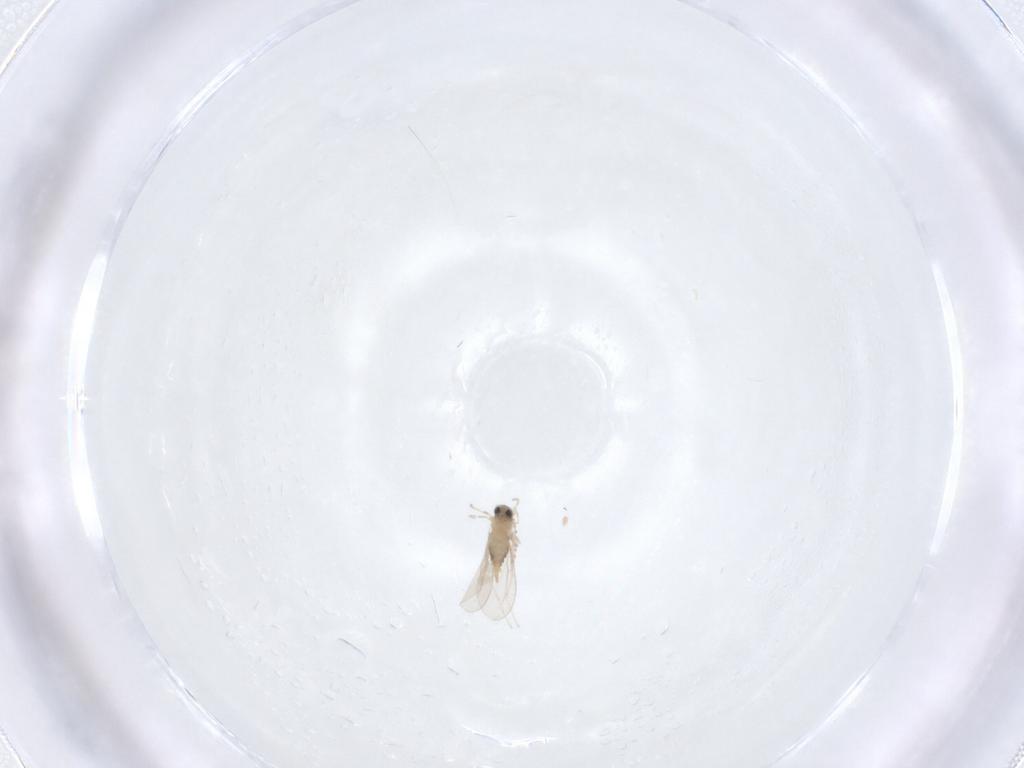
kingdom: Animalia
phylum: Arthropoda
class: Insecta
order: Diptera
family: Cecidomyiidae
